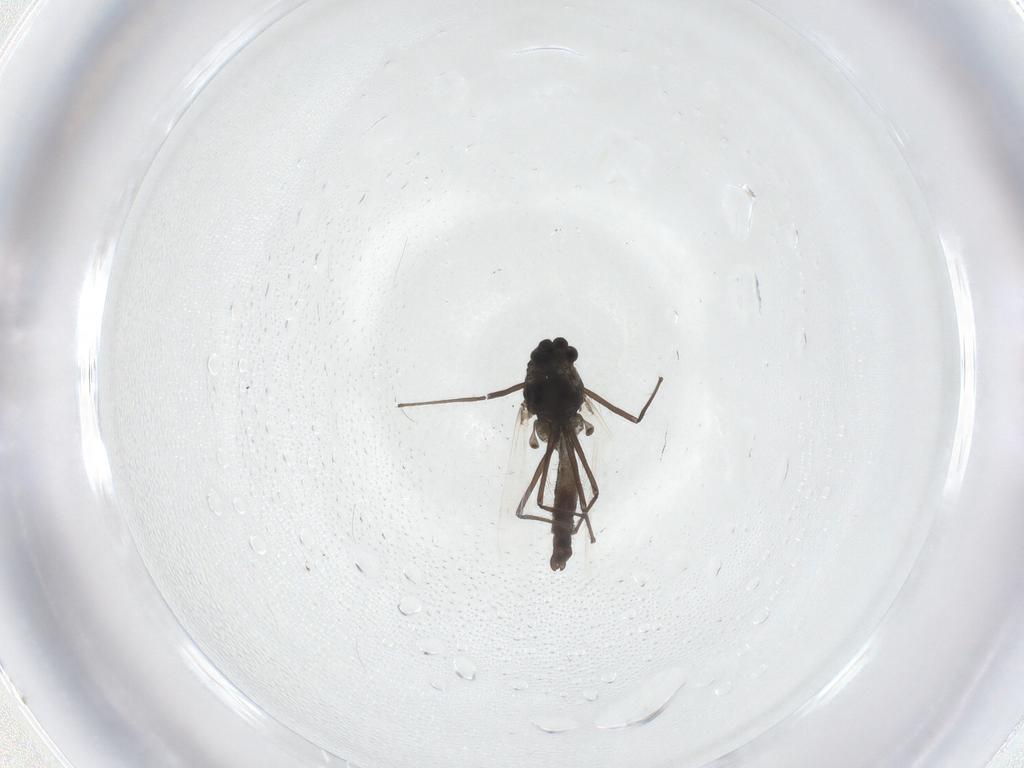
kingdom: Animalia
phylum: Arthropoda
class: Insecta
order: Diptera
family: Chironomidae
